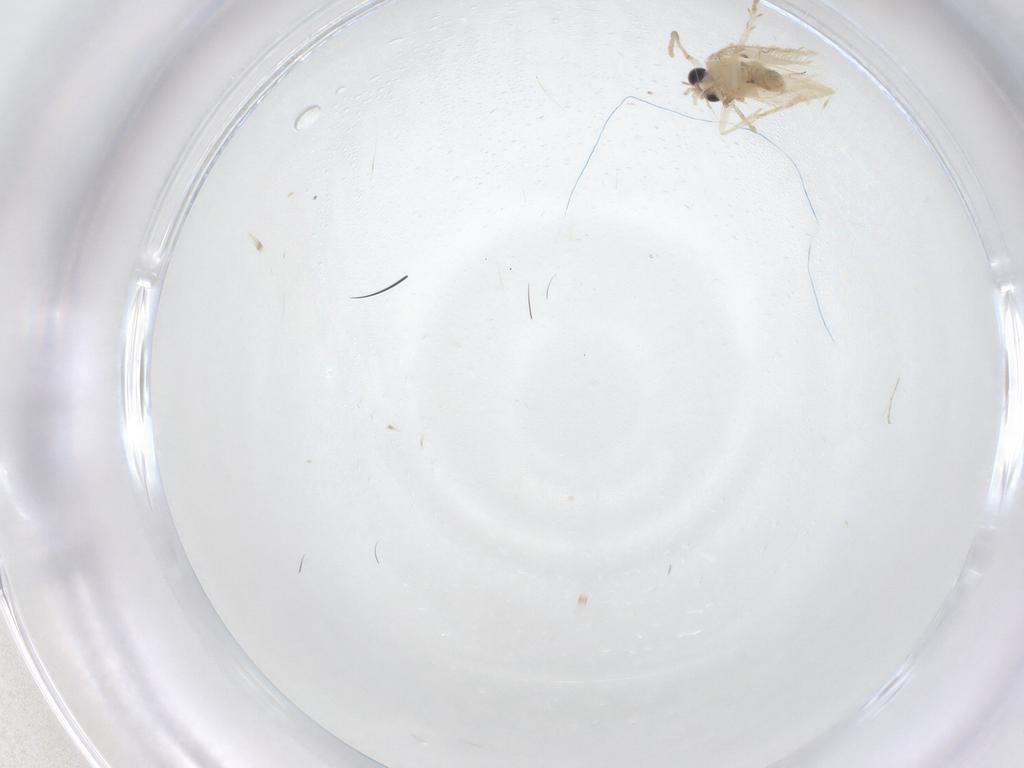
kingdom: Animalia
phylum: Arthropoda
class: Insecta
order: Lepidoptera
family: Nepticulidae
